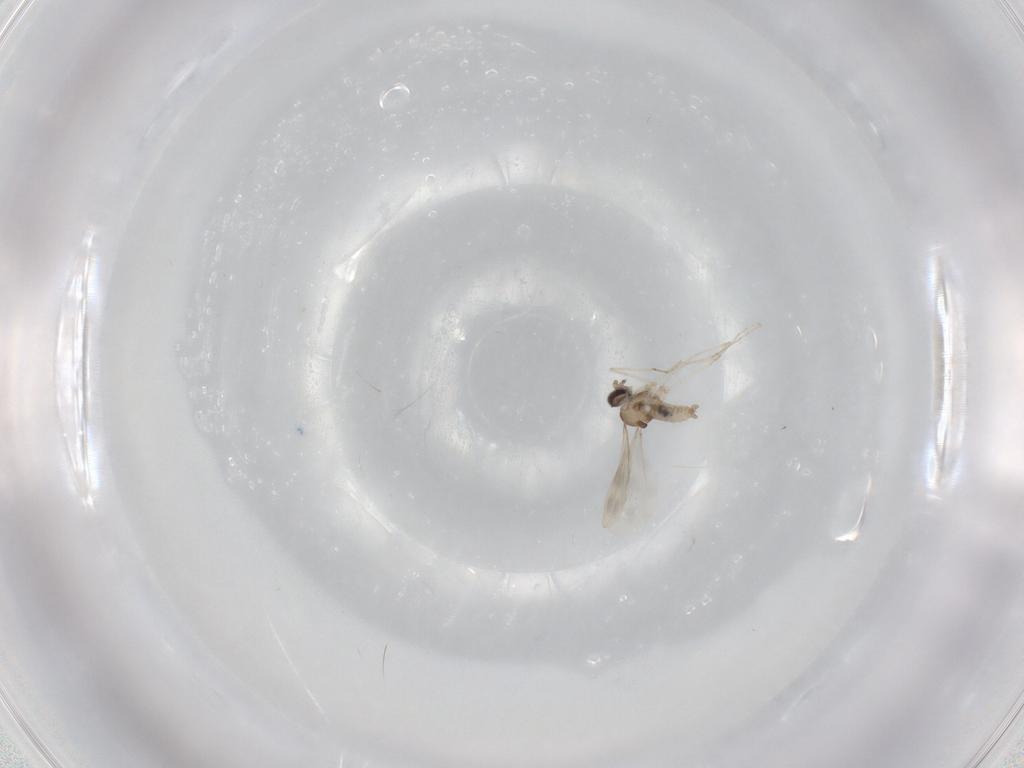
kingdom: Animalia
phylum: Arthropoda
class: Insecta
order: Diptera
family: Cecidomyiidae
